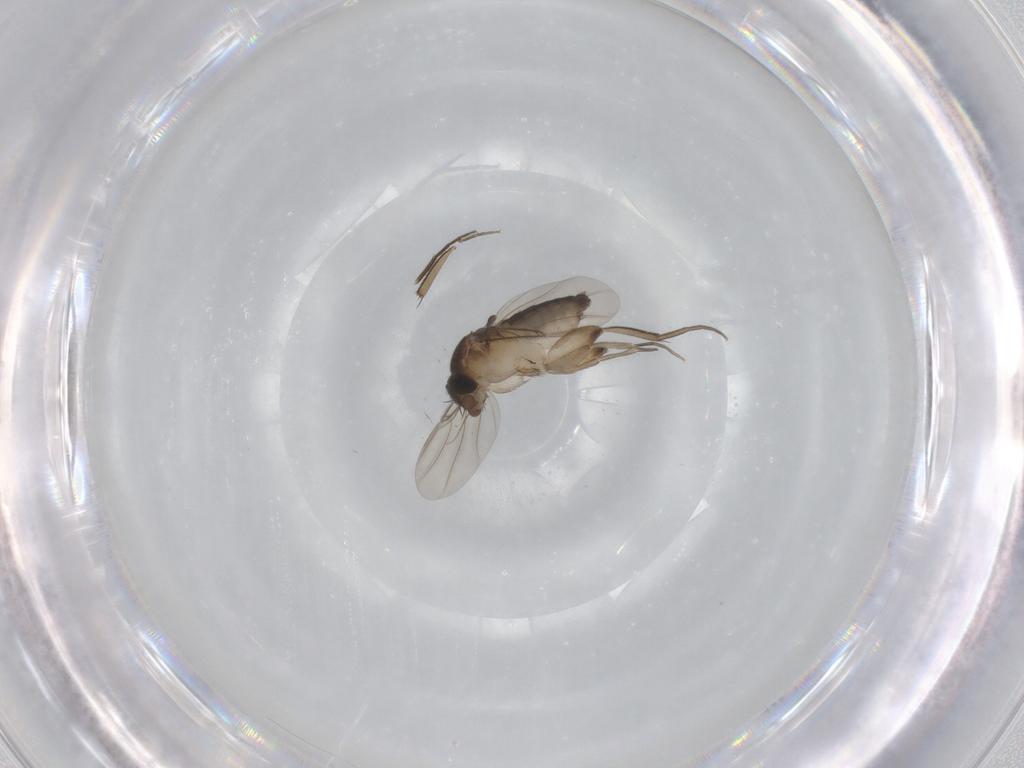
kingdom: Animalia
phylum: Arthropoda
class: Insecta
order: Diptera
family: Phoridae
